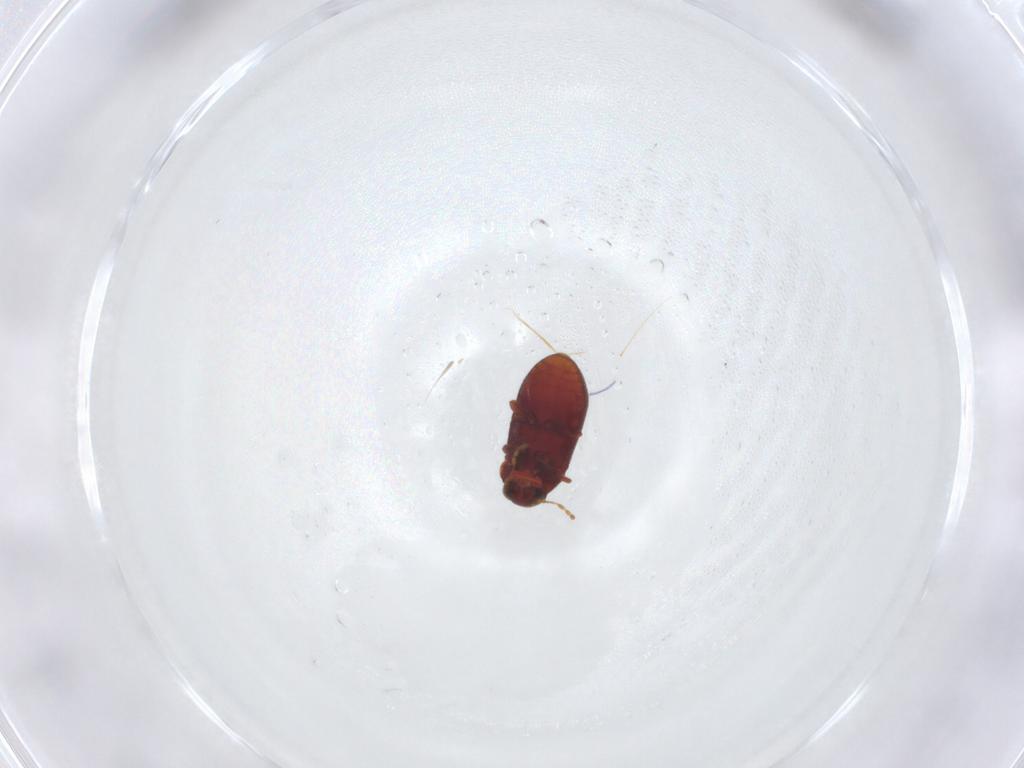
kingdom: Animalia
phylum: Arthropoda
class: Insecta
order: Coleoptera
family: Ptinidae
